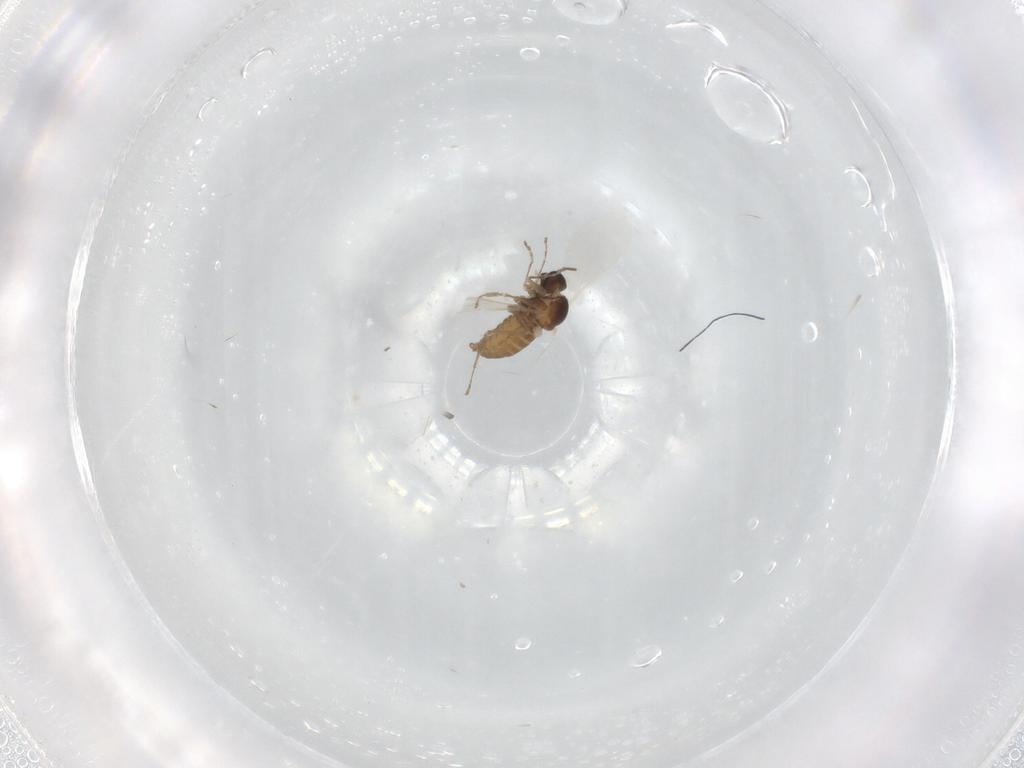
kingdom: Animalia
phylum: Arthropoda
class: Insecta
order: Diptera
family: Cecidomyiidae
